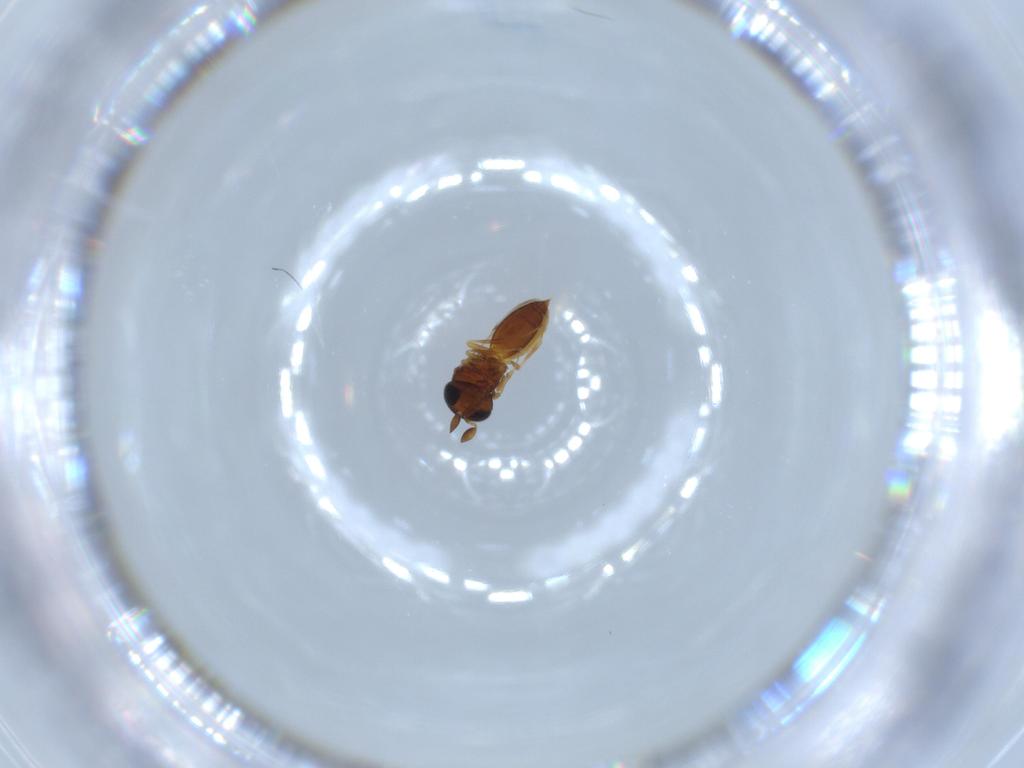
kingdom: Animalia
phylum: Arthropoda
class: Insecta
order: Hymenoptera
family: Scelionidae
